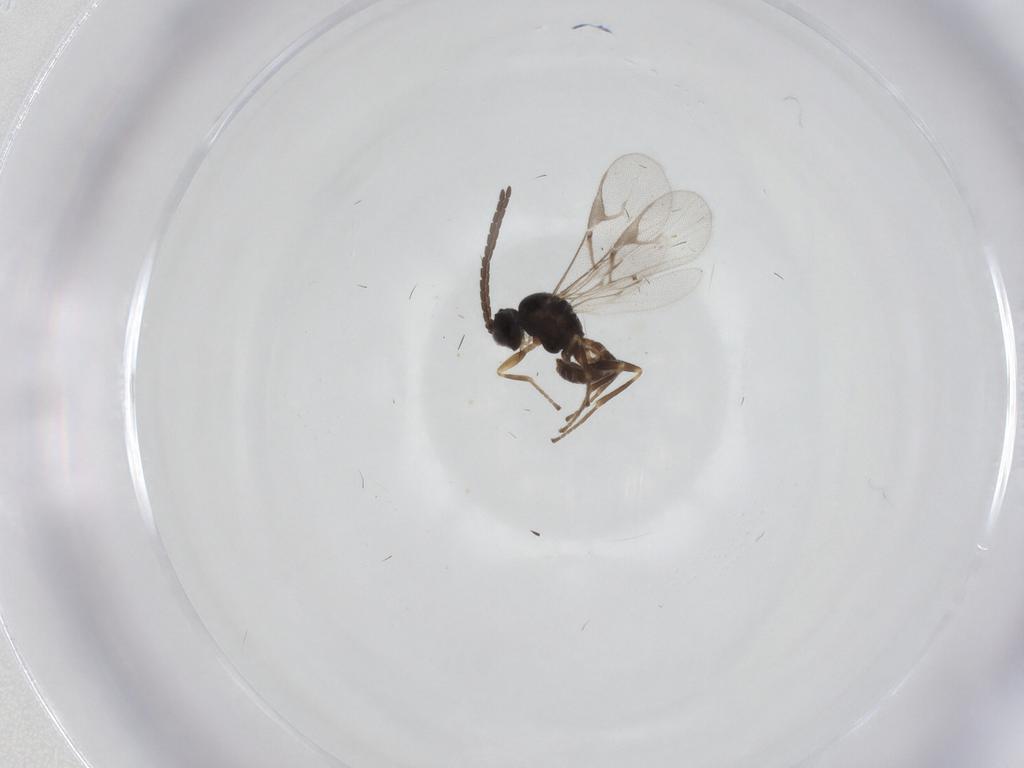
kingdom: Animalia
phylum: Arthropoda
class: Insecta
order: Hymenoptera
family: Braconidae
